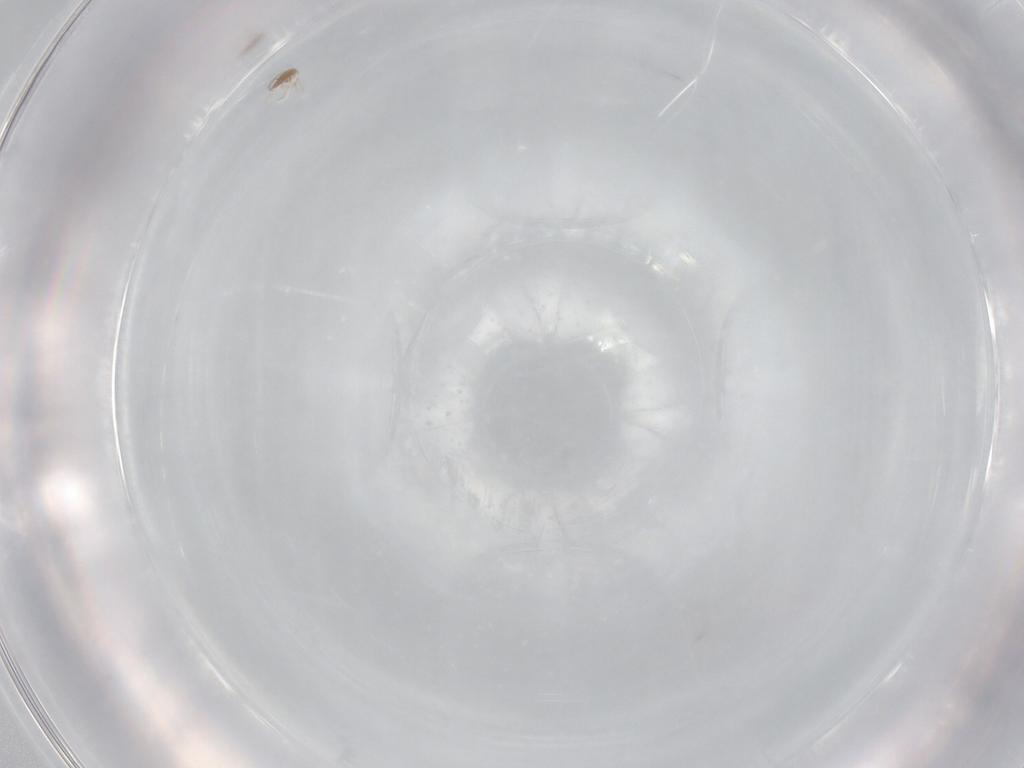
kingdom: Animalia
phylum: Arthropoda
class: Arachnida
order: Trombidiformes
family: Tetranychidae
